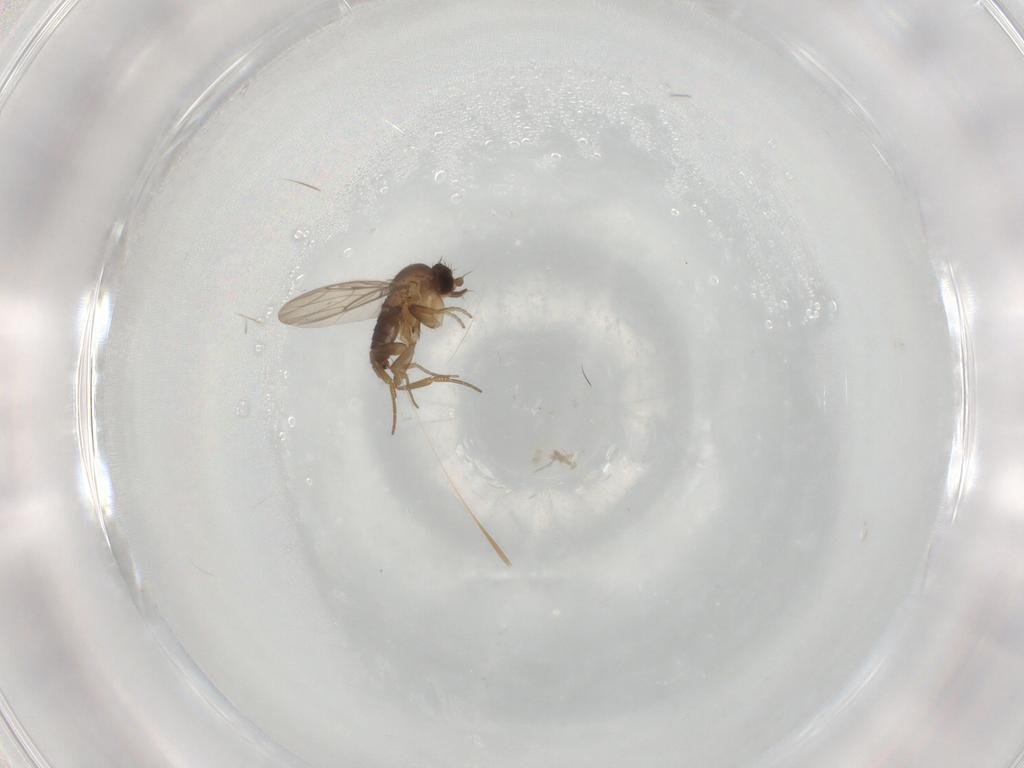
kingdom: Animalia
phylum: Arthropoda
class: Insecta
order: Diptera
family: Phoridae
